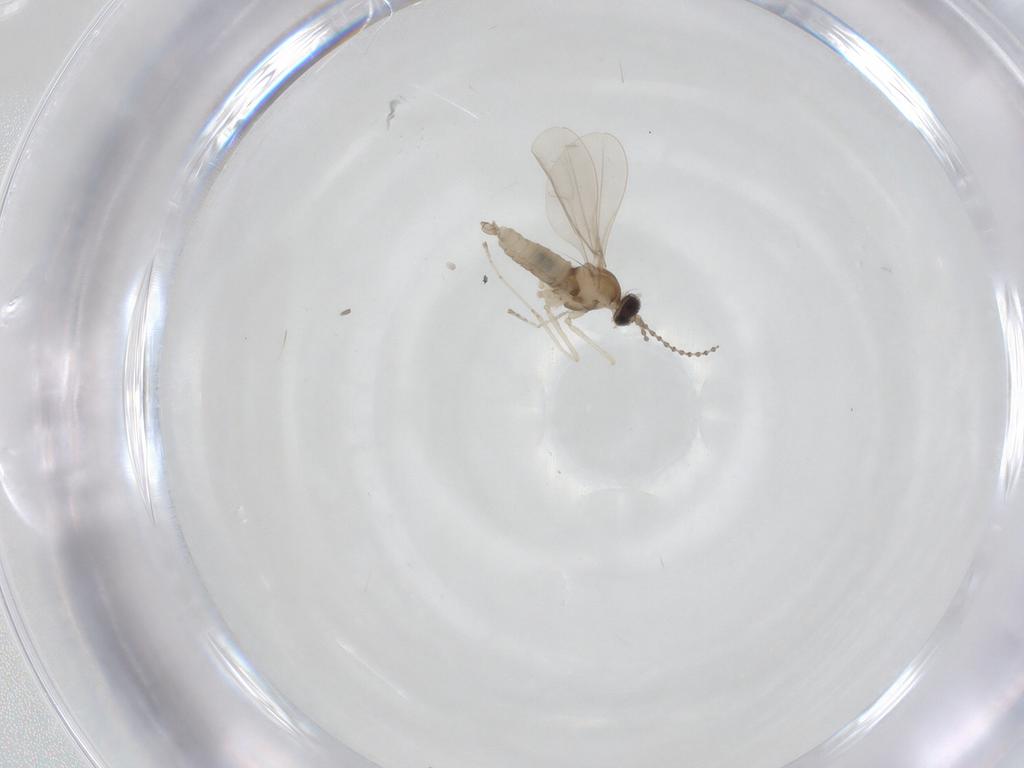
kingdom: Animalia
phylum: Arthropoda
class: Insecta
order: Diptera
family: Cecidomyiidae
